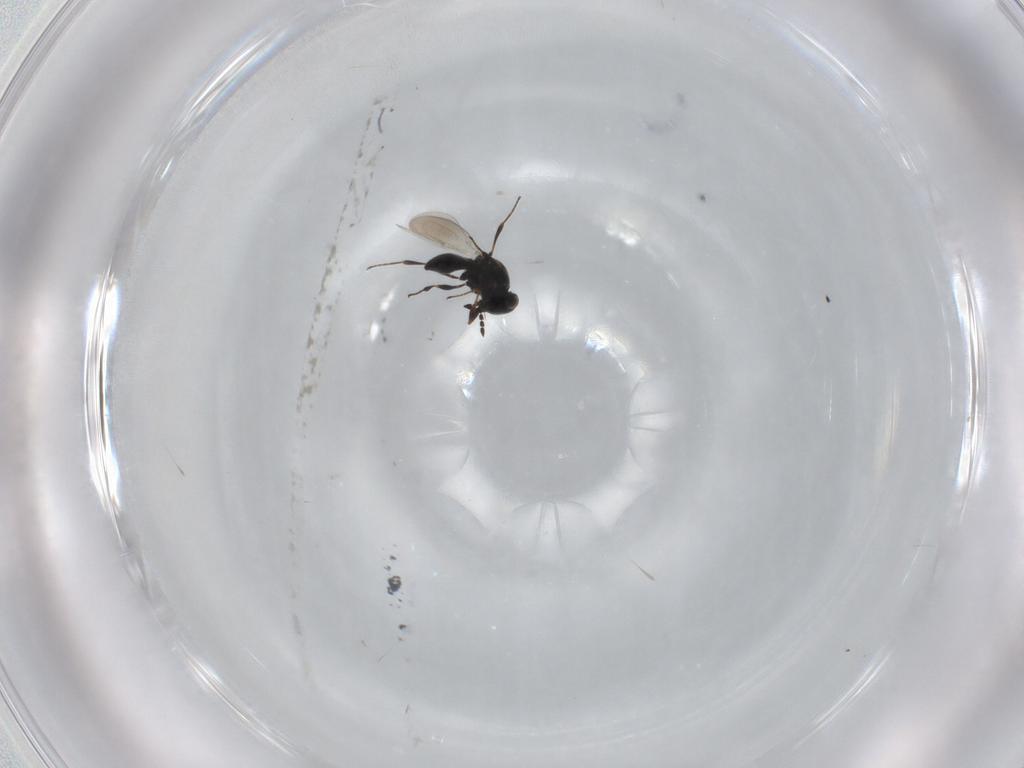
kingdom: Animalia
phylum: Arthropoda
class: Insecta
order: Hymenoptera
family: Platygastridae
